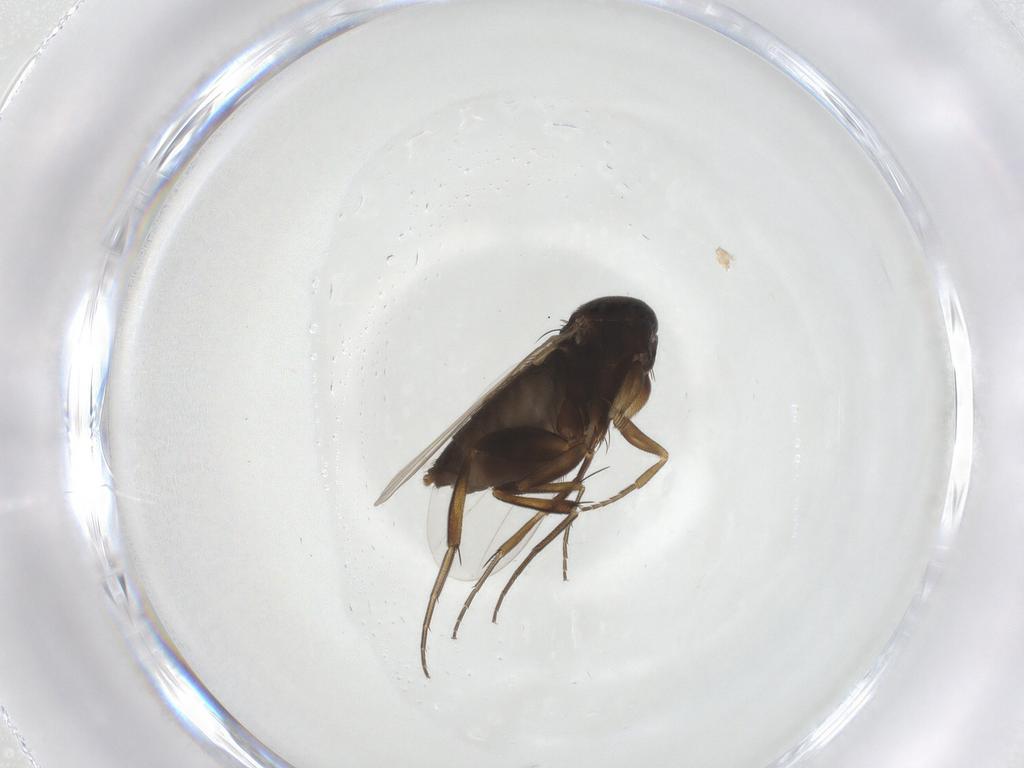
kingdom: Animalia
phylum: Arthropoda
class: Insecta
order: Diptera
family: Phoridae
